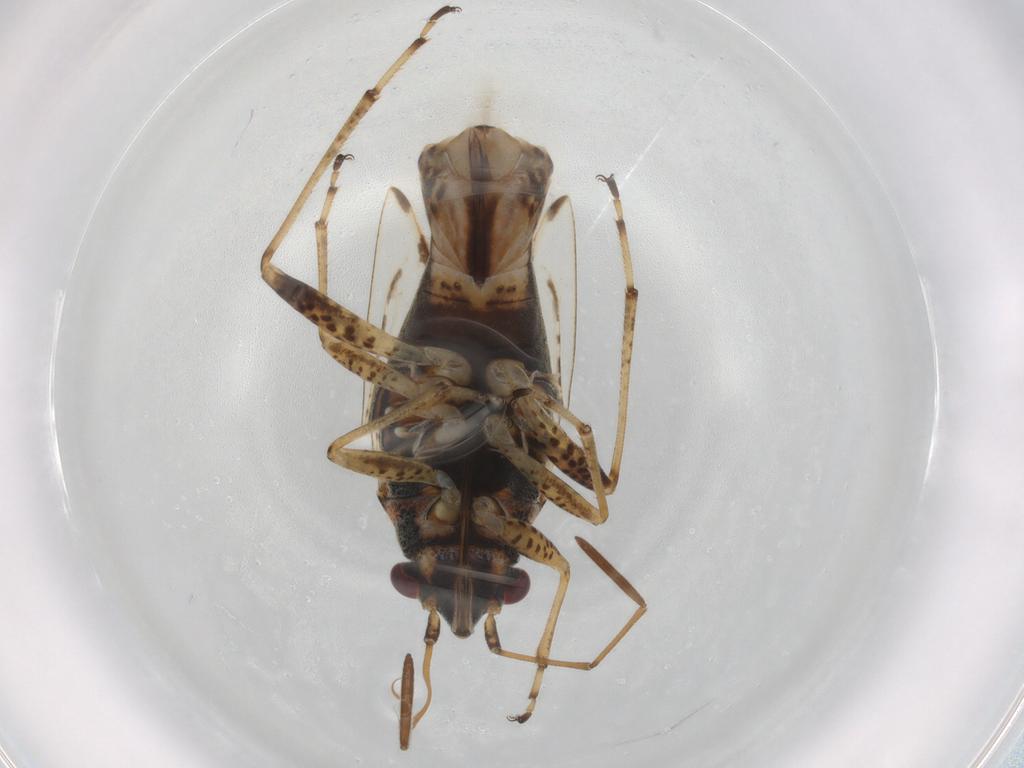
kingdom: Animalia
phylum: Arthropoda
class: Insecta
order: Hemiptera
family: Lygaeidae
